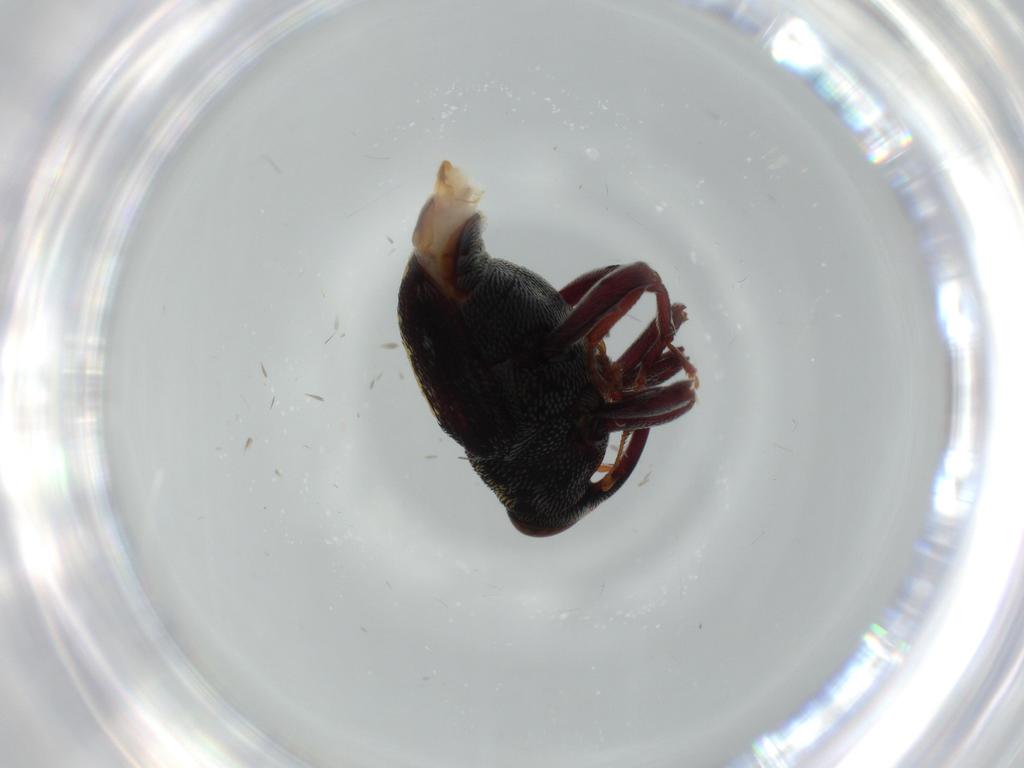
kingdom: Animalia
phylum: Arthropoda
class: Insecta
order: Coleoptera
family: Curculionidae
